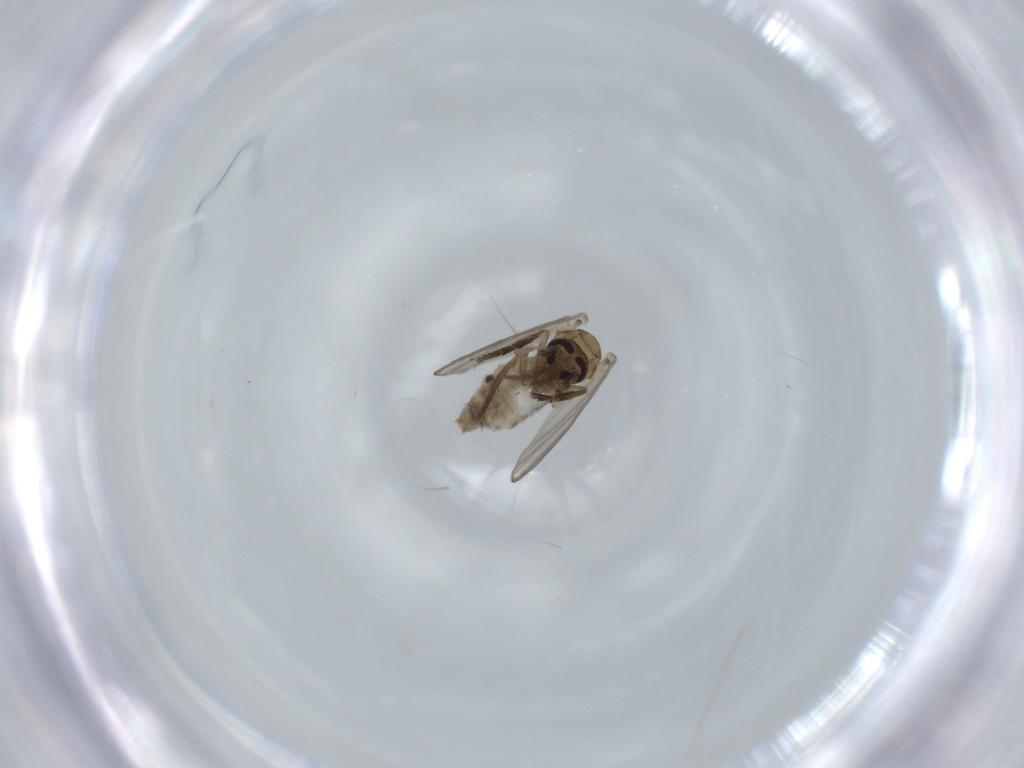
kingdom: Animalia
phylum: Arthropoda
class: Insecta
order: Diptera
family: Psychodidae
